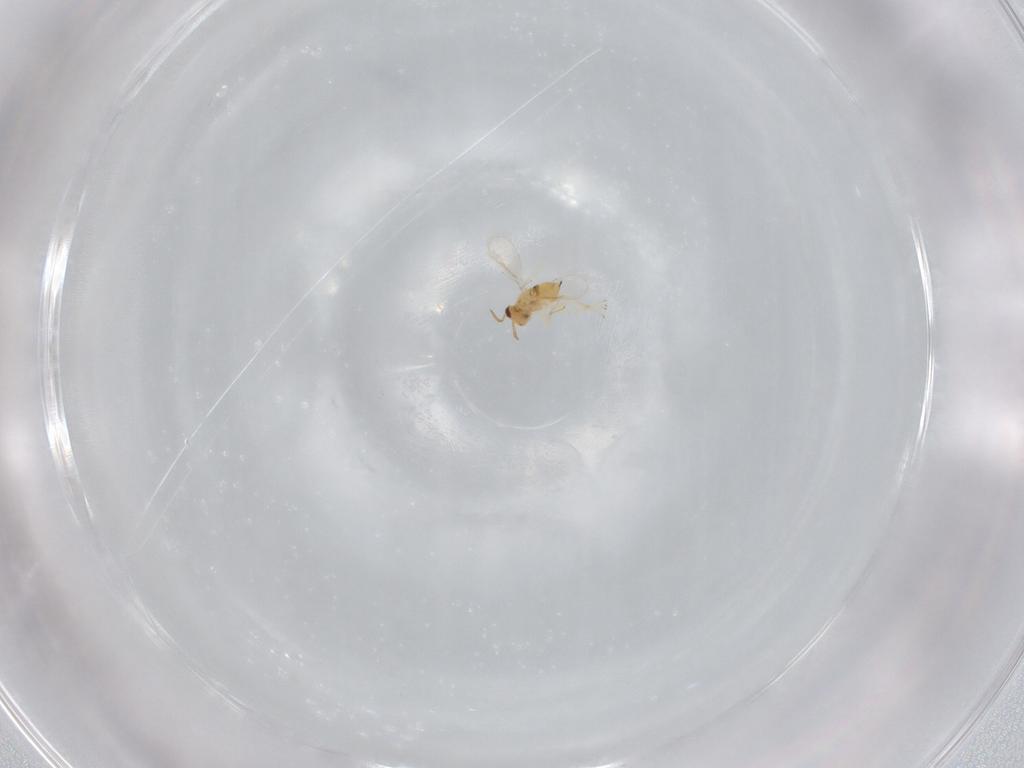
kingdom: Animalia
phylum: Arthropoda
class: Insecta
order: Hymenoptera
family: Aphelinidae
